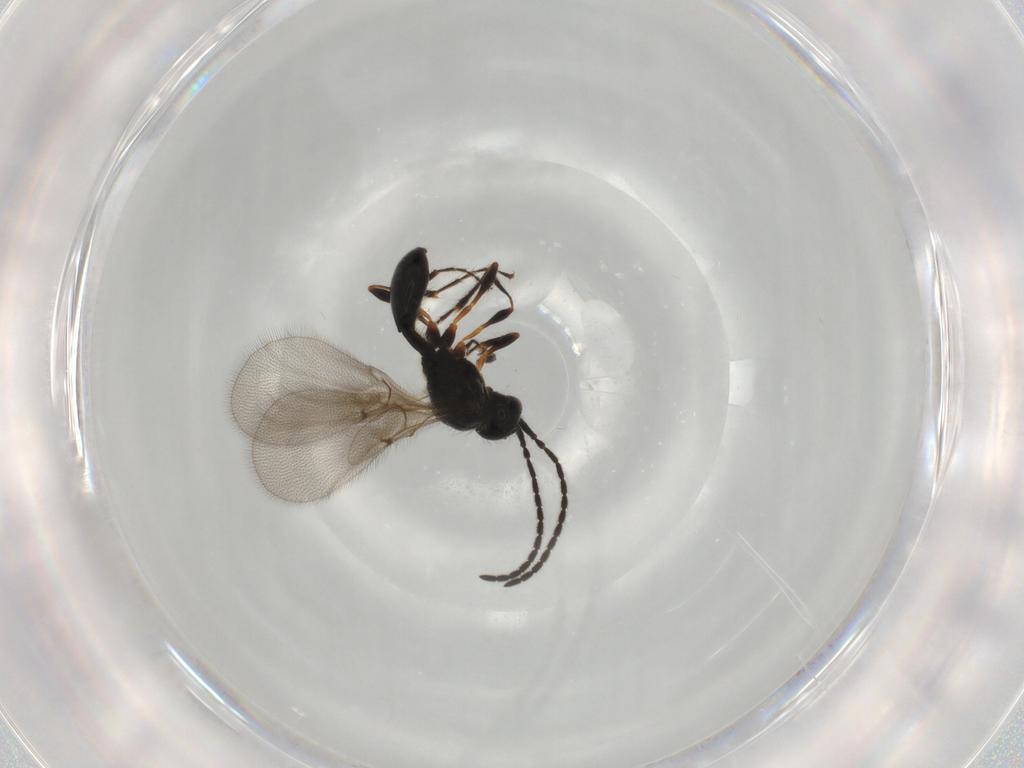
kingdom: Animalia
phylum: Arthropoda
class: Insecta
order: Hymenoptera
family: Diapriidae
